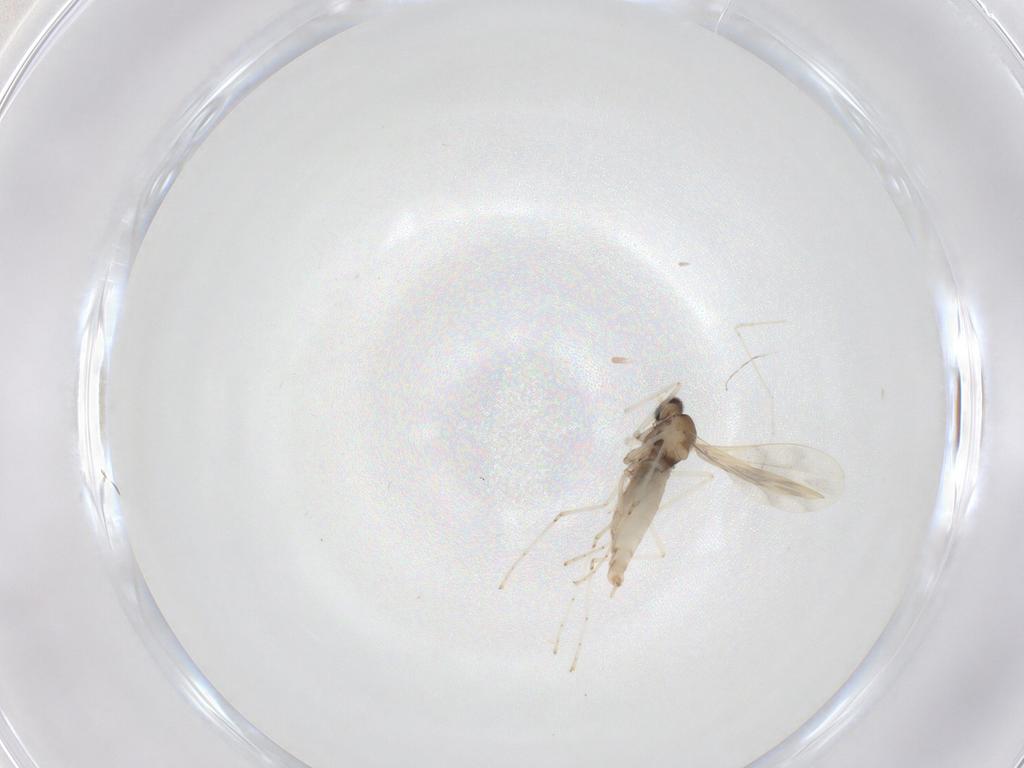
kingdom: Animalia
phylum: Arthropoda
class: Insecta
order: Diptera
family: Cecidomyiidae
